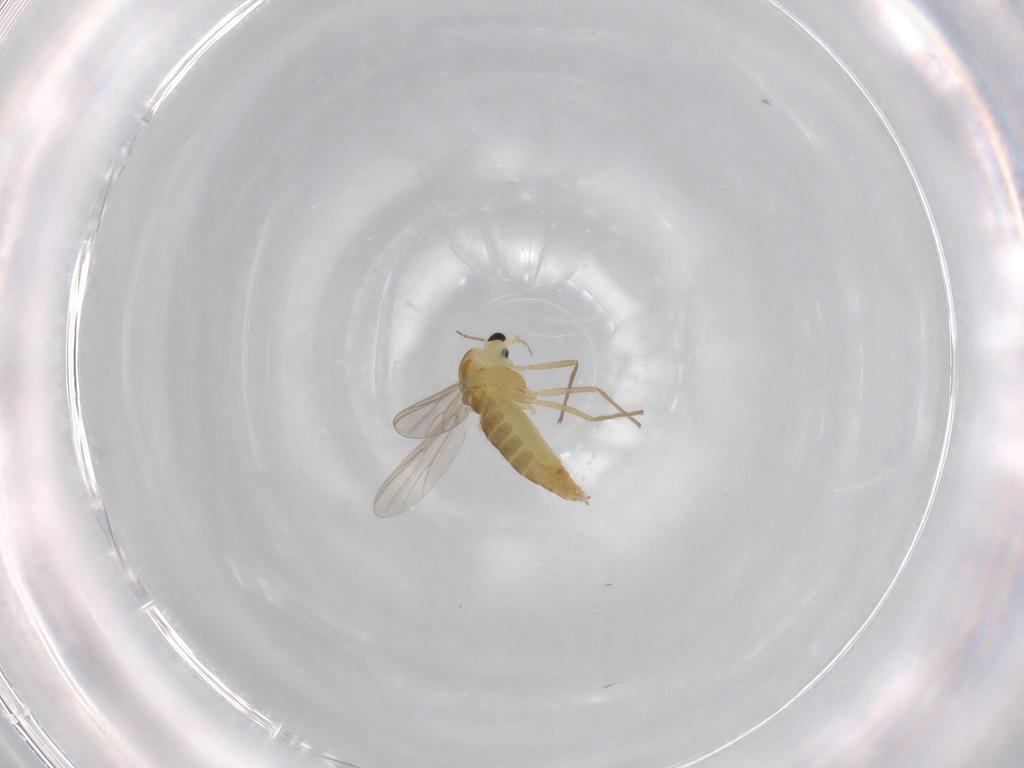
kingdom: Animalia
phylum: Arthropoda
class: Insecta
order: Diptera
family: Chironomidae
